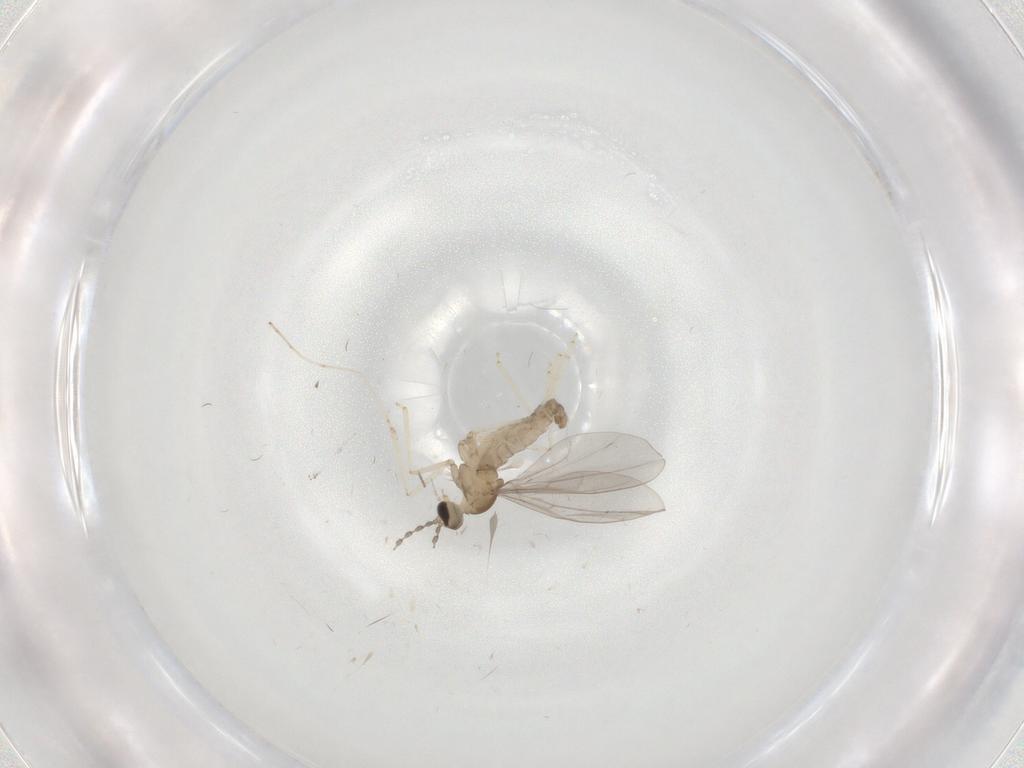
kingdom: Animalia
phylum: Arthropoda
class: Insecta
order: Diptera
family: Cecidomyiidae
